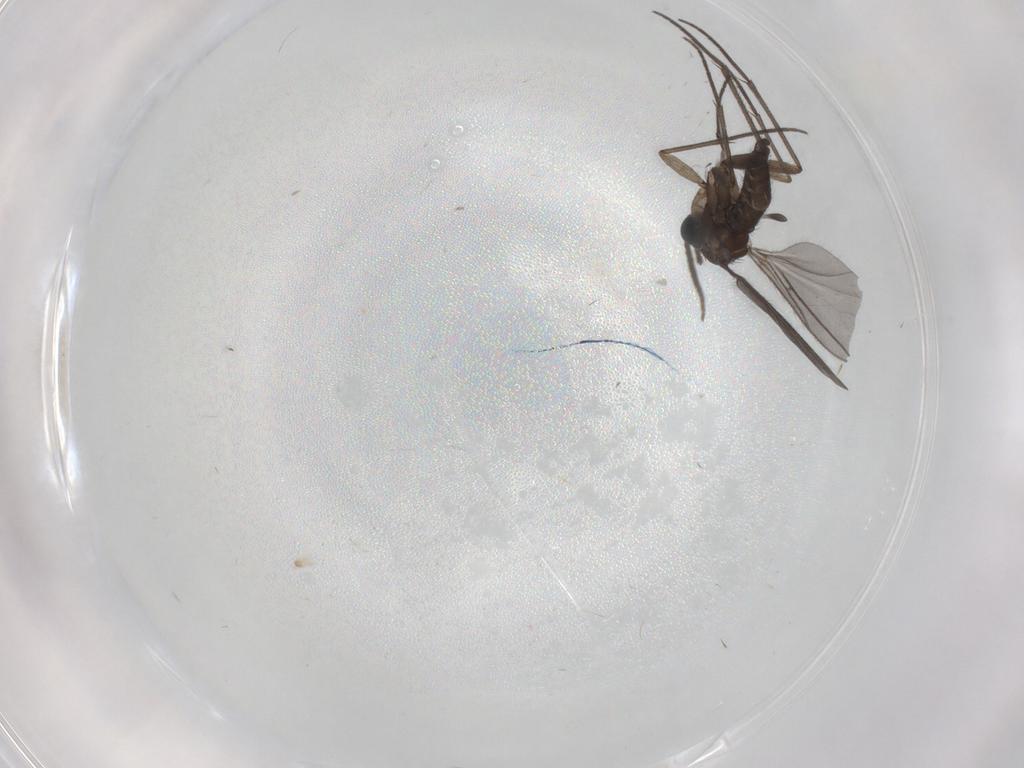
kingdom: Animalia
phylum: Arthropoda
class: Insecta
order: Diptera
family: Sciaridae
